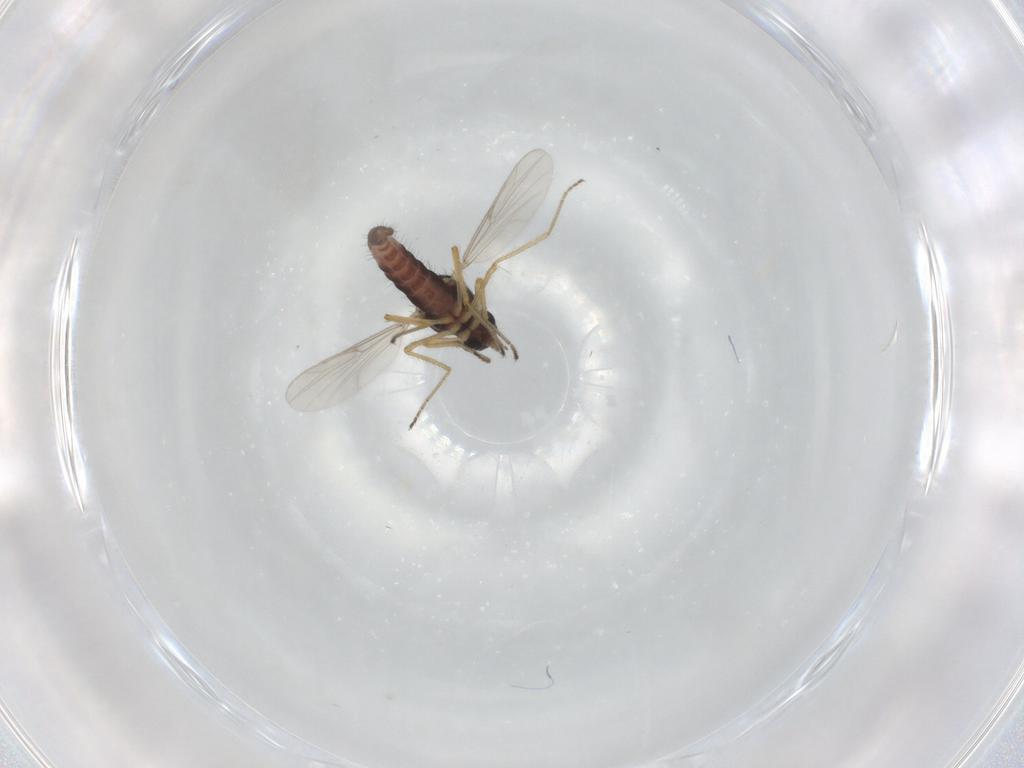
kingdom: Animalia
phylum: Arthropoda
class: Insecta
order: Diptera
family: Ceratopogonidae
